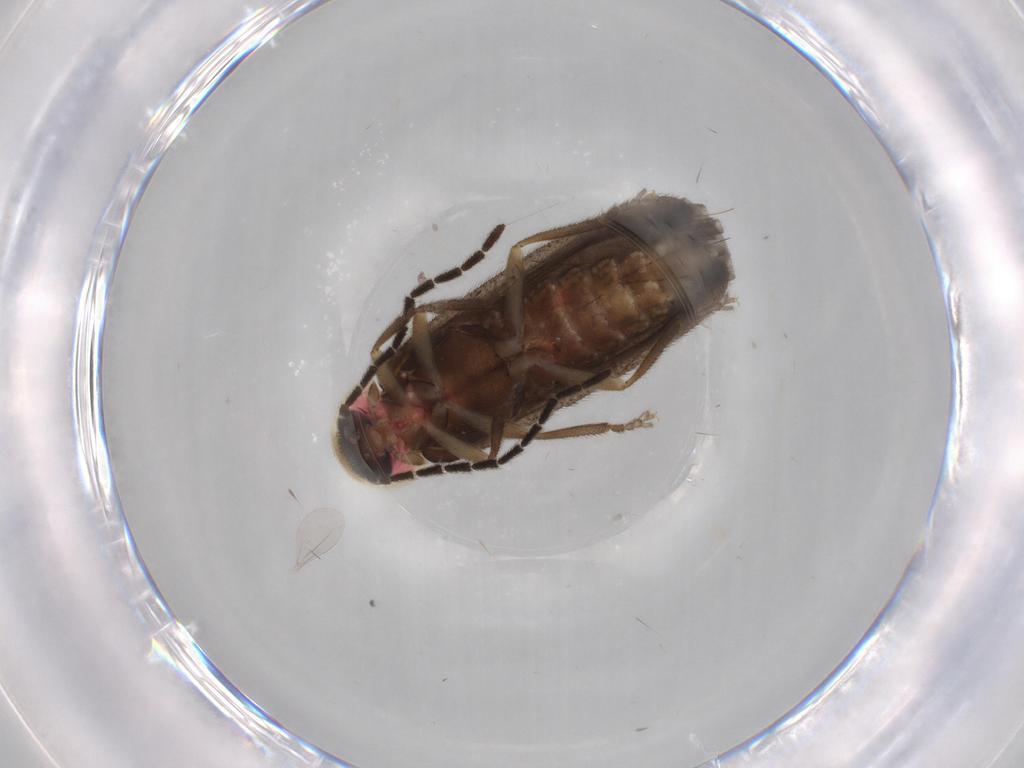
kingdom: Animalia
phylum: Arthropoda
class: Insecta
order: Coleoptera
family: Lampyridae
